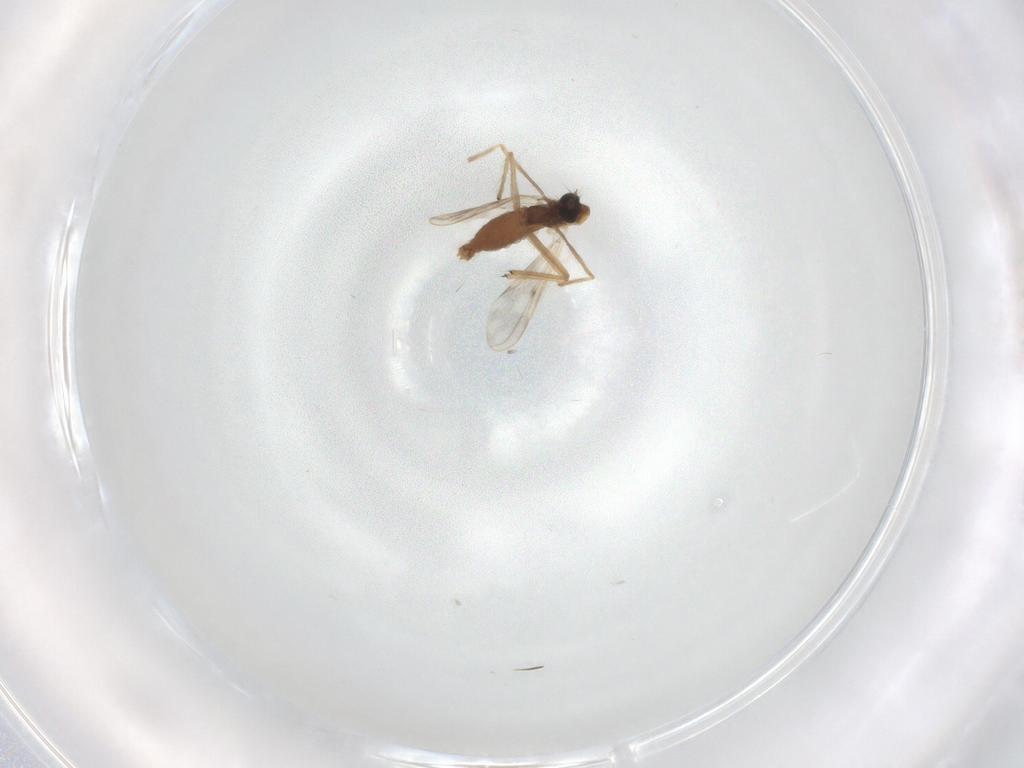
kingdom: Animalia
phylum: Arthropoda
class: Insecta
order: Diptera
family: Chironomidae
